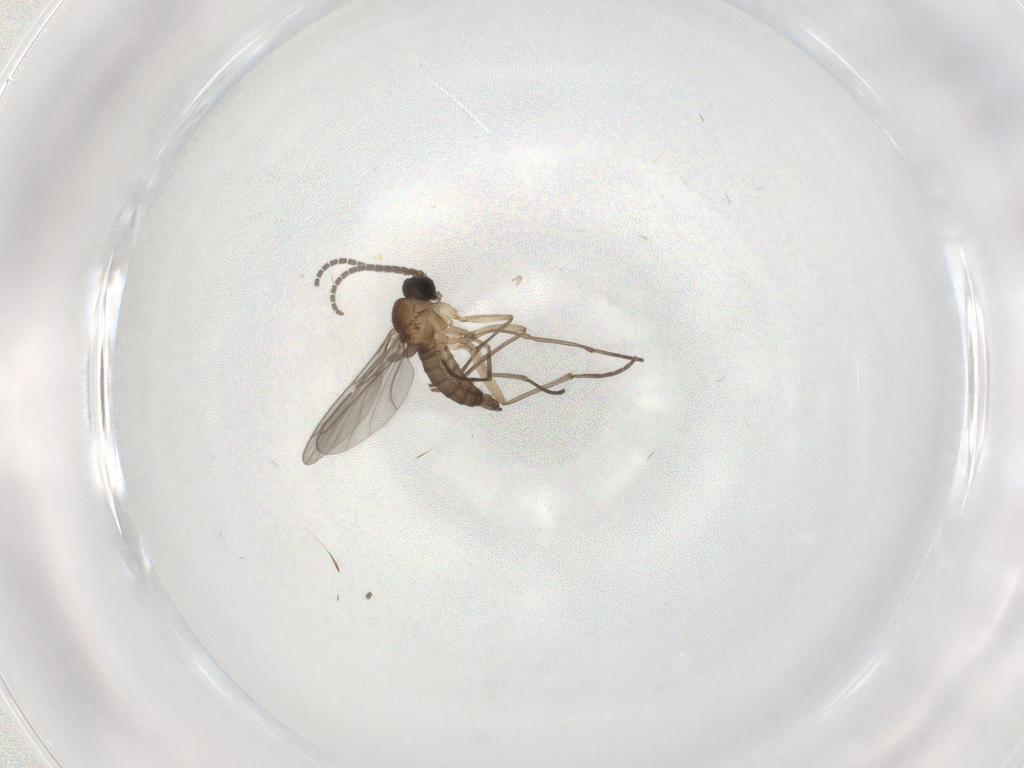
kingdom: Animalia
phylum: Arthropoda
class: Insecta
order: Diptera
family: Sciaridae
